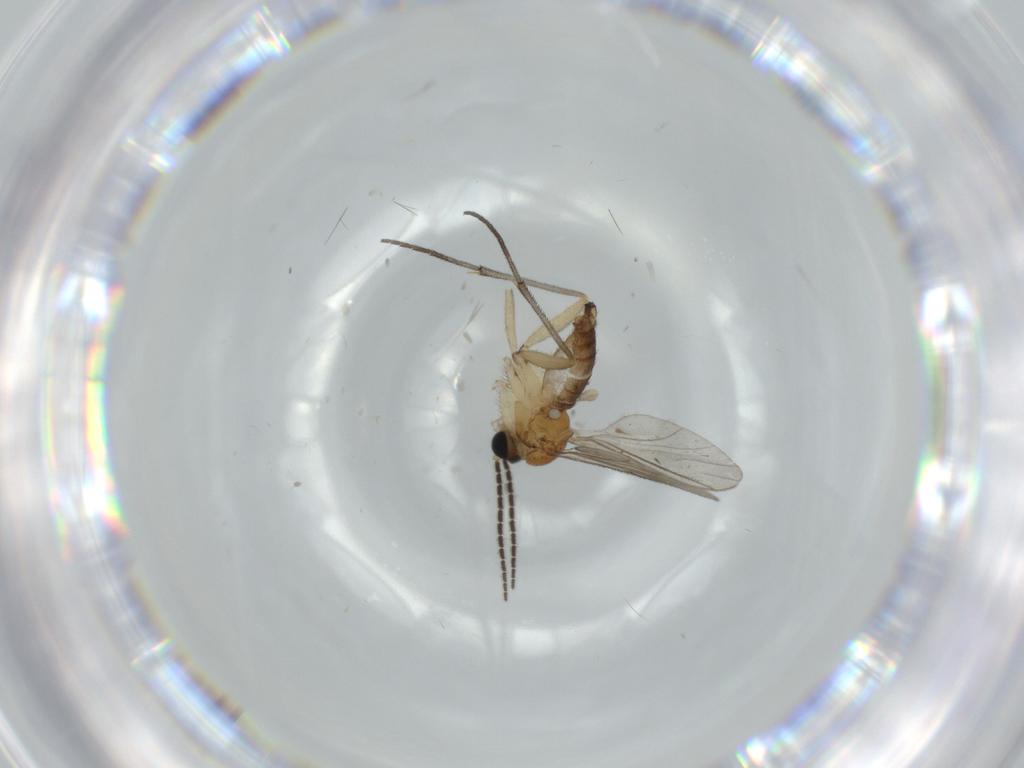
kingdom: Animalia
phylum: Arthropoda
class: Insecta
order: Diptera
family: Sciaridae
